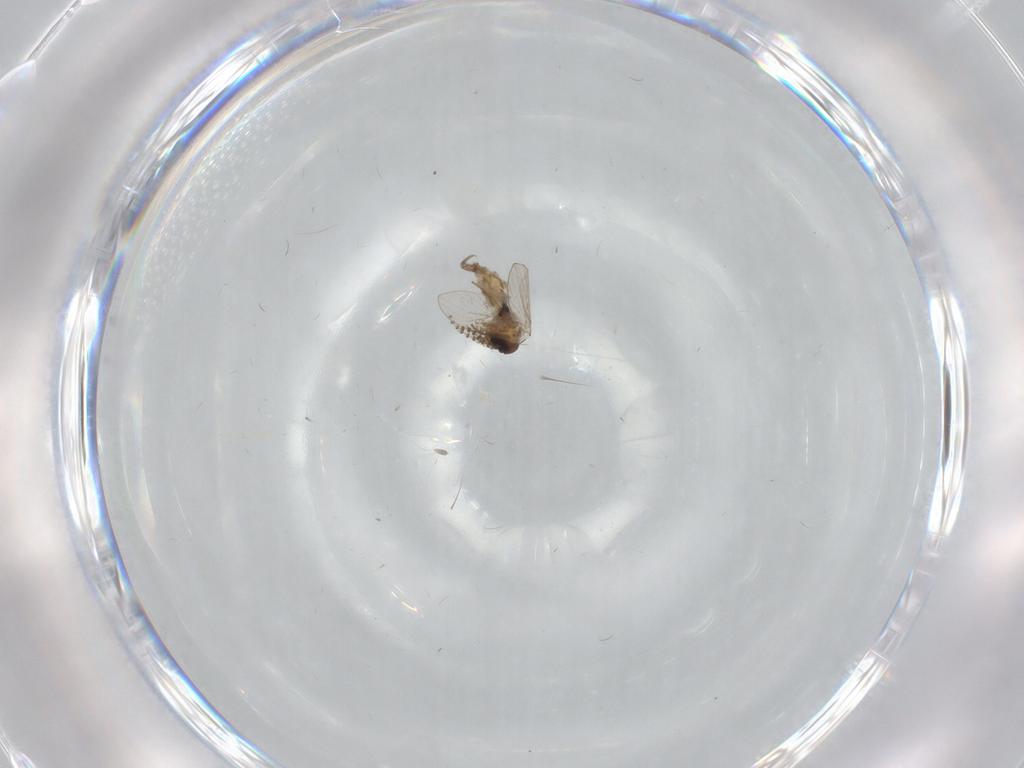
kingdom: Animalia
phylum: Arthropoda
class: Insecta
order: Diptera
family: Psychodidae
